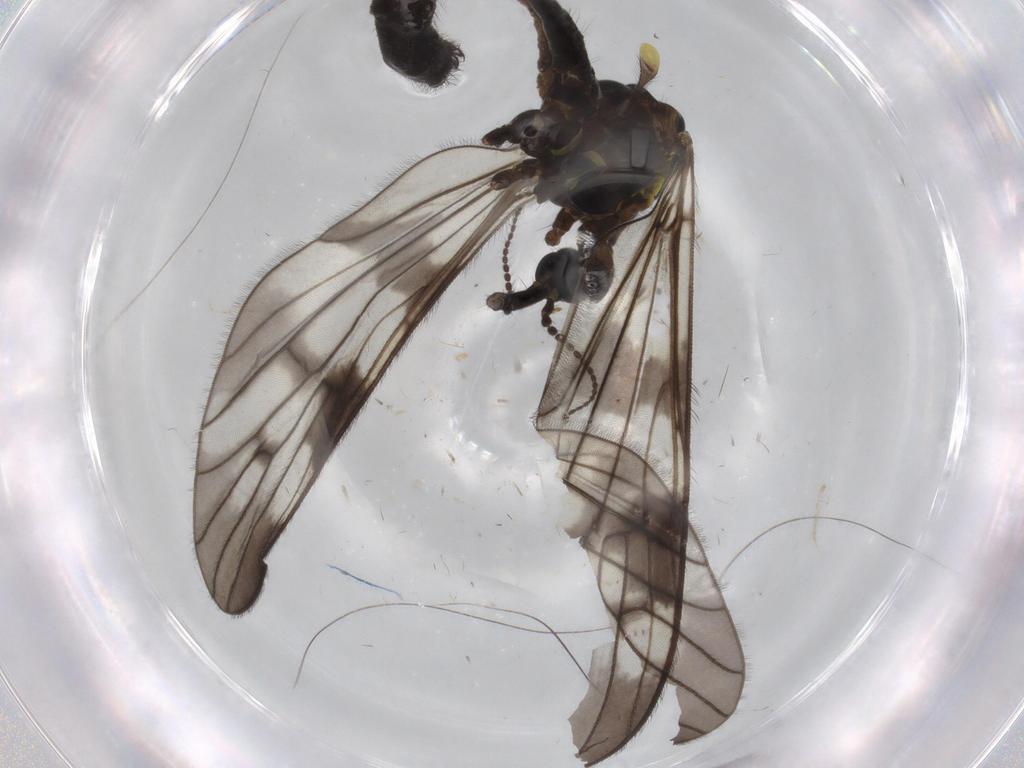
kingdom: Animalia
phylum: Arthropoda
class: Insecta
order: Diptera
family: Limoniidae
